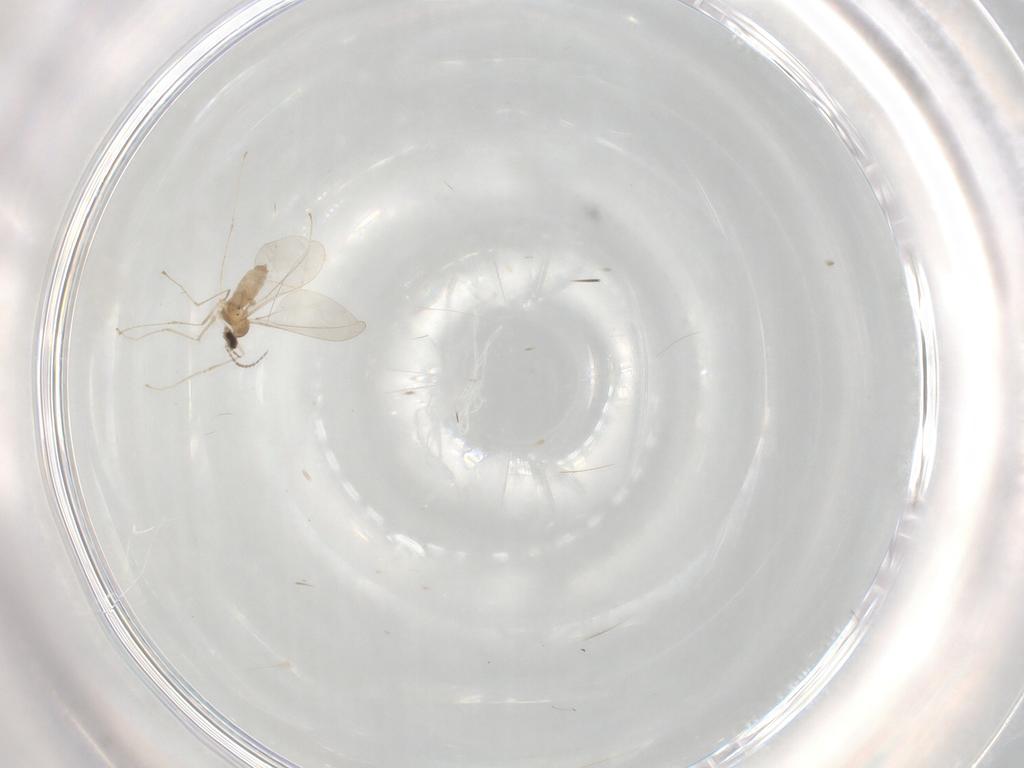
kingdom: Animalia
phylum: Arthropoda
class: Insecta
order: Diptera
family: Cecidomyiidae
